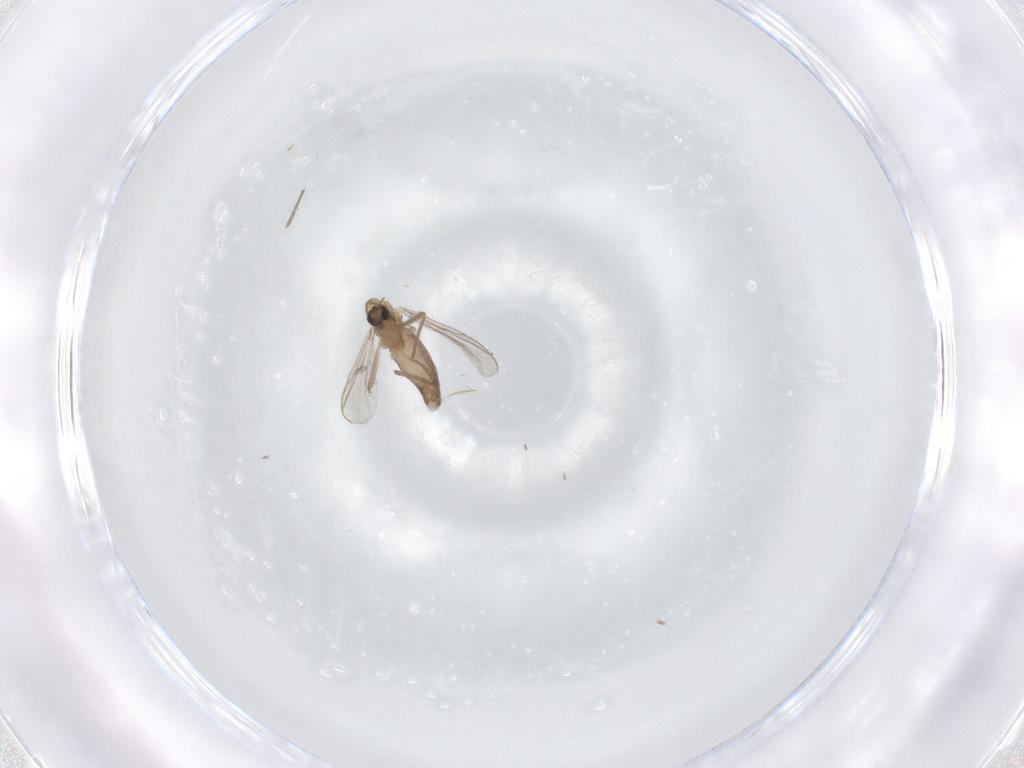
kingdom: Animalia
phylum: Arthropoda
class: Insecta
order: Diptera
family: Chironomidae
